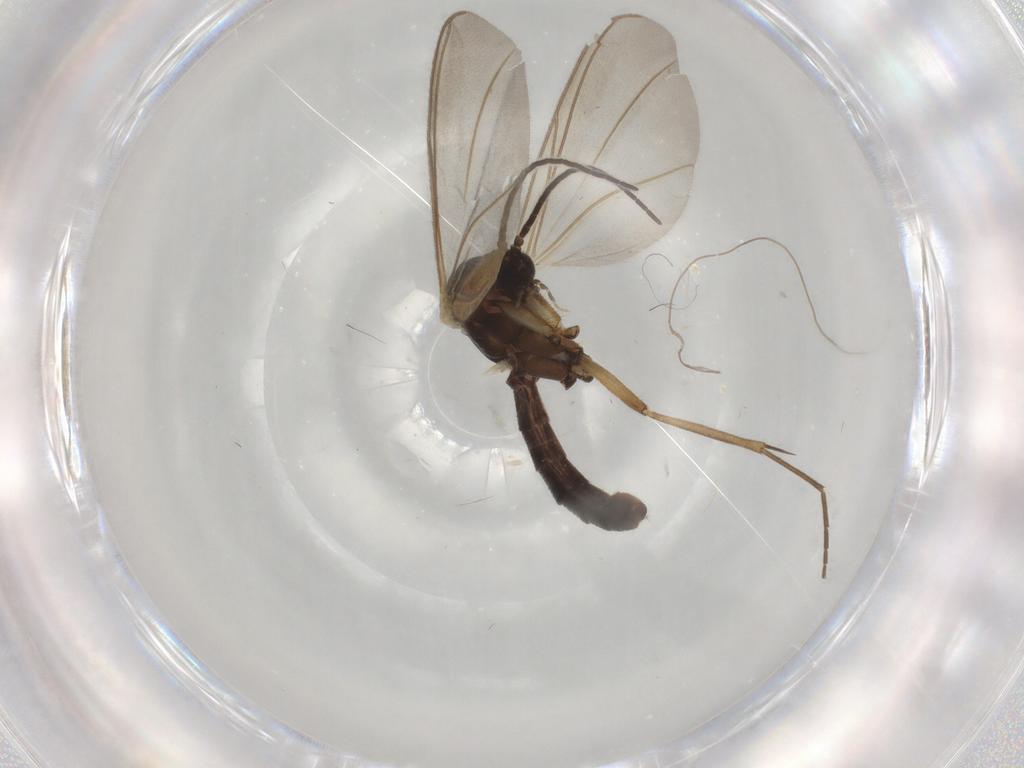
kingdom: Animalia
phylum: Arthropoda
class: Insecta
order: Diptera
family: Mycetophilidae
